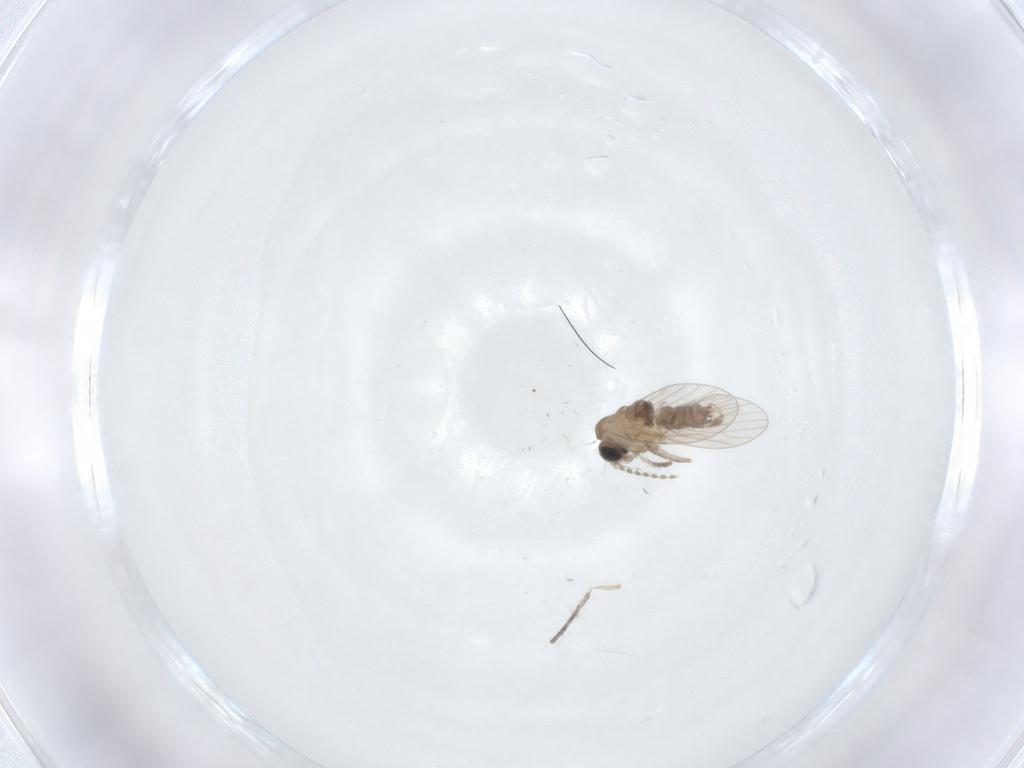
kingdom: Animalia
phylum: Arthropoda
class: Insecta
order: Diptera
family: Psychodidae
